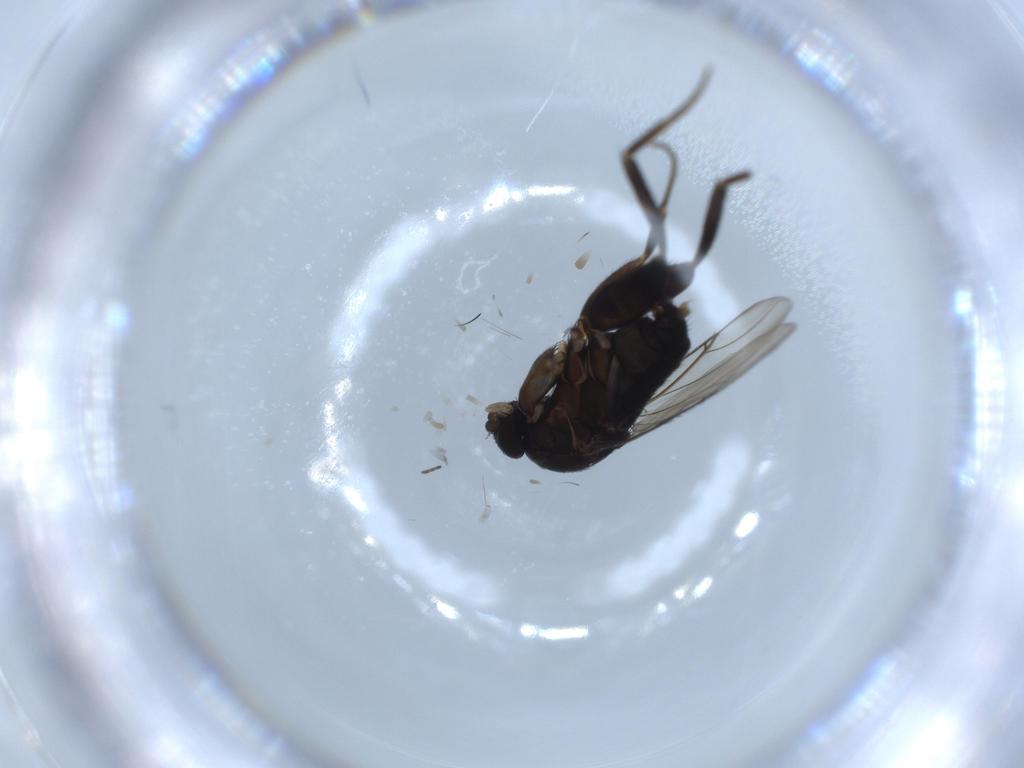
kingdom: Animalia
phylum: Arthropoda
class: Insecta
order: Diptera
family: Phoridae
